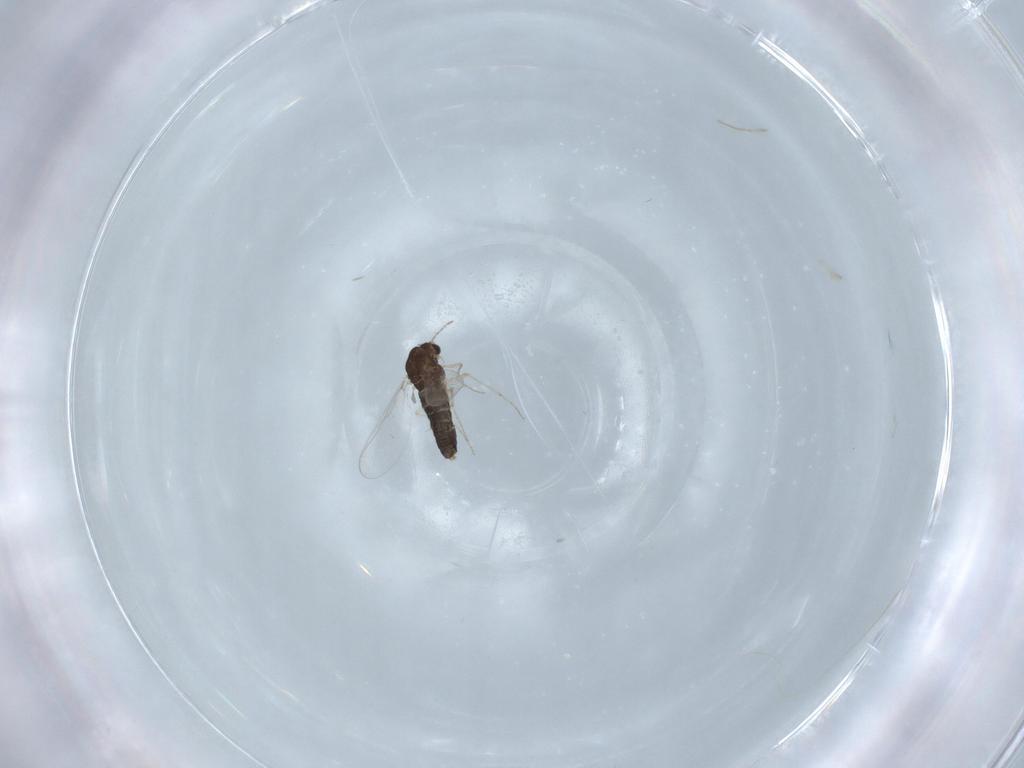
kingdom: Animalia
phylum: Arthropoda
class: Insecta
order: Diptera
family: Chironomidae
